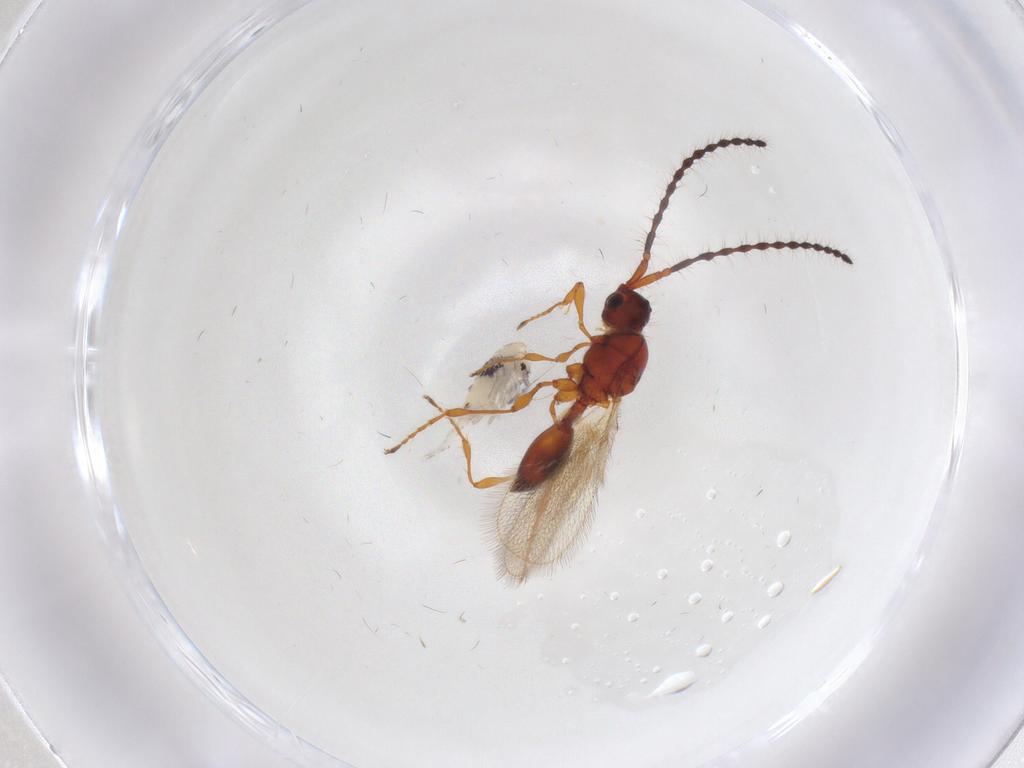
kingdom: Animalia
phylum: Arthropoda
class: Insecta
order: Hymenoptera
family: Diapriidae
